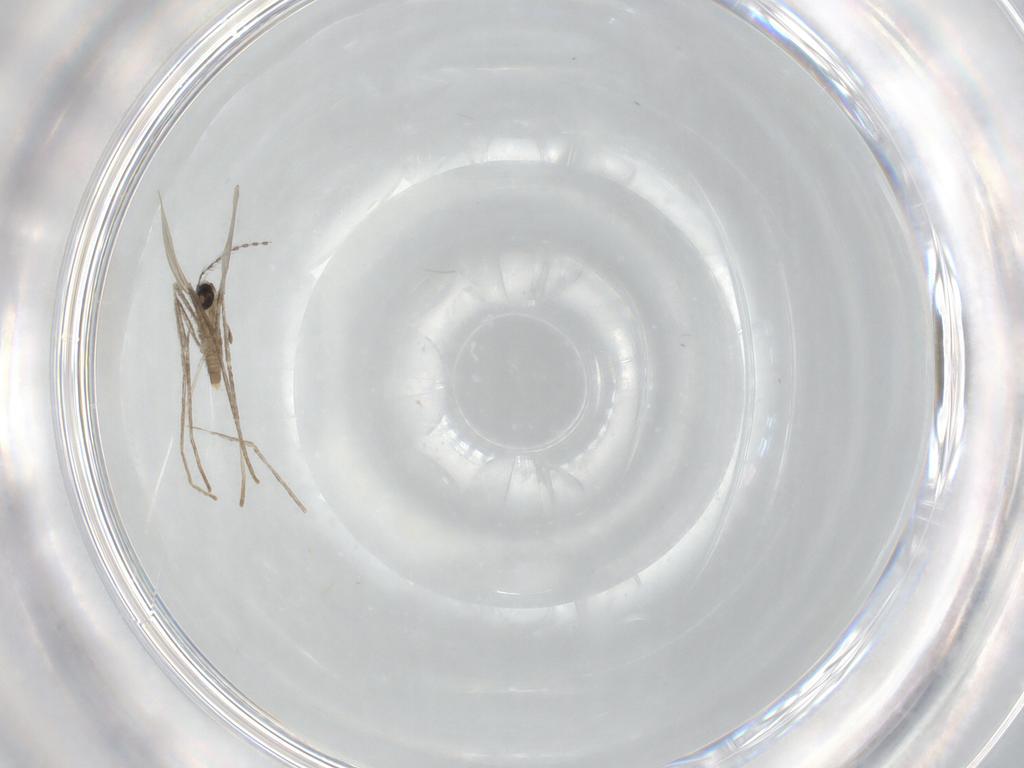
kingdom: Animalia
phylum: Arthropoda
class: Insecta
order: Diptera
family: Cecidomyiidae
